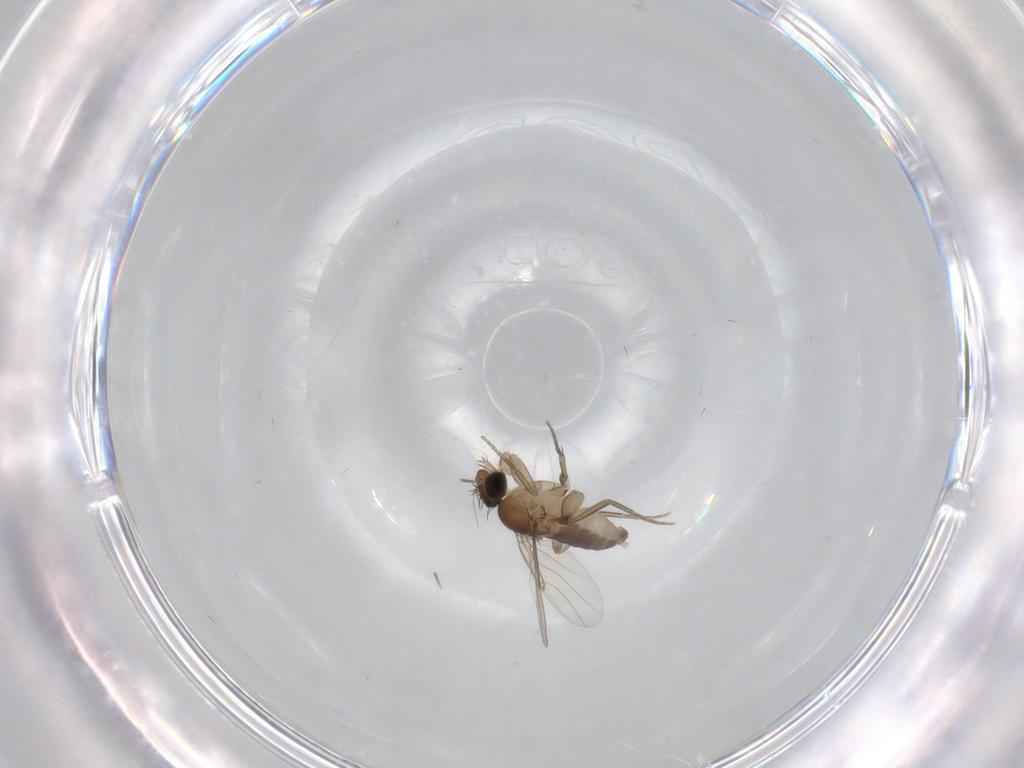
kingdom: Animalia
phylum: Arthropoda
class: Insecta
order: Diptera
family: Phoridae
